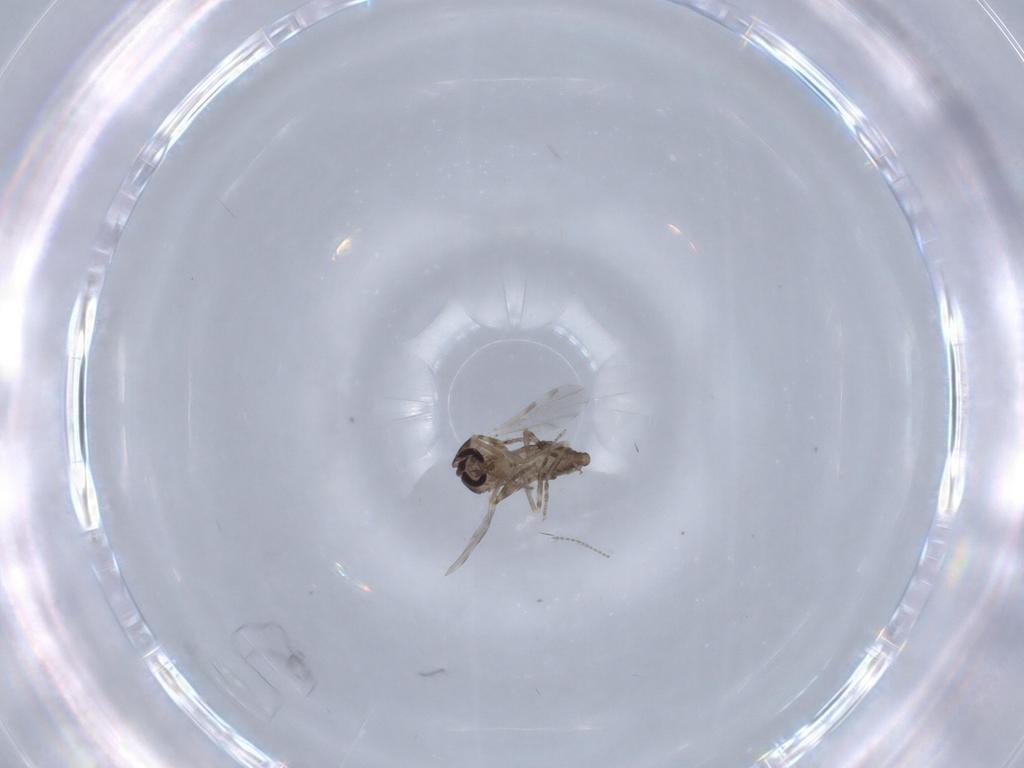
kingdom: Animalia
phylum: Arthropoda
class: Insecta
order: Diptera
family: Ceratopogonidae
